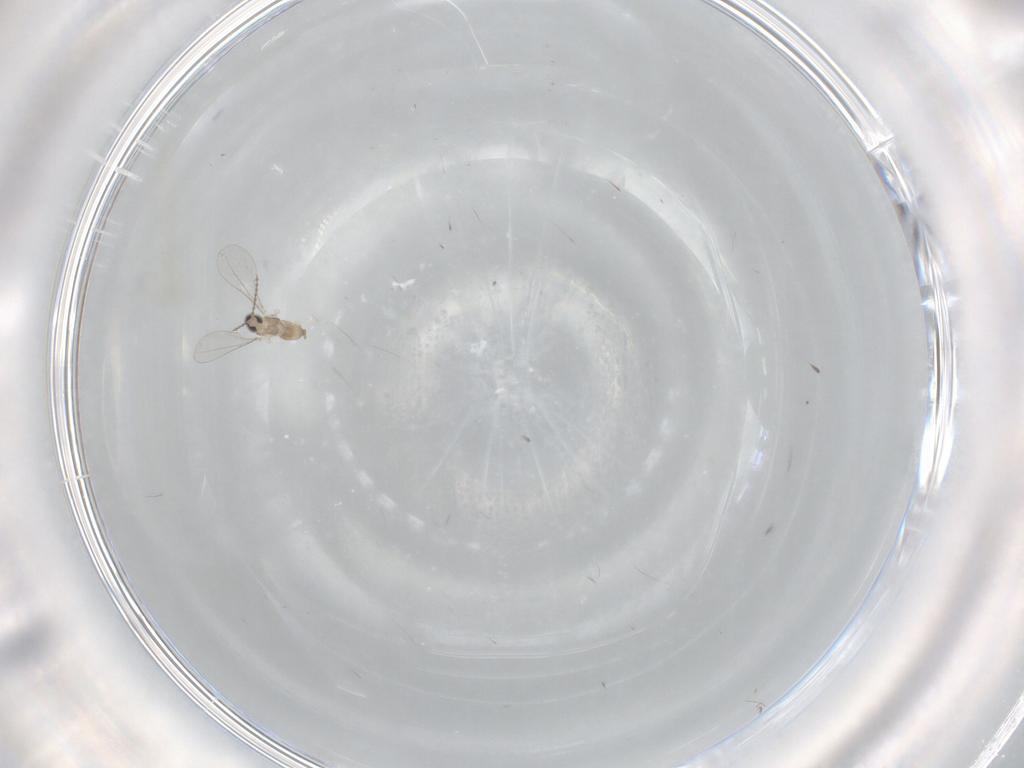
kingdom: Animalia
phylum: Arthropoda
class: Insecta
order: Diptera
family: Cecidomyiidae
